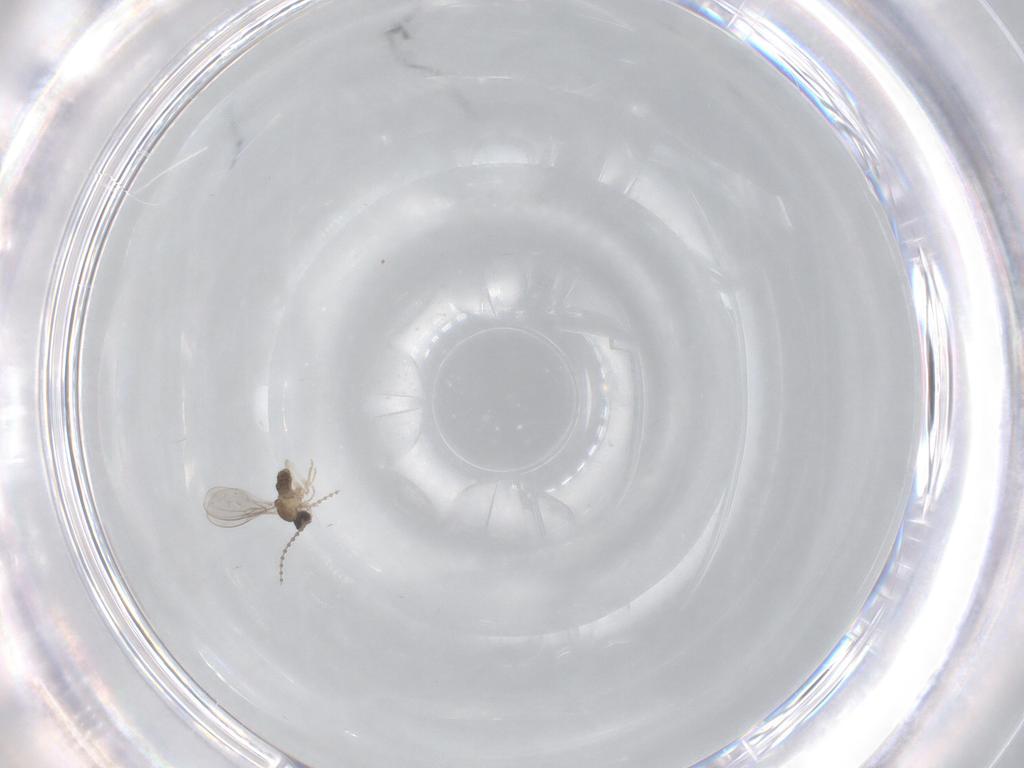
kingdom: Animalia
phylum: Arthropoda
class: Insecta
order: Diptera
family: Cecidomyiidae
